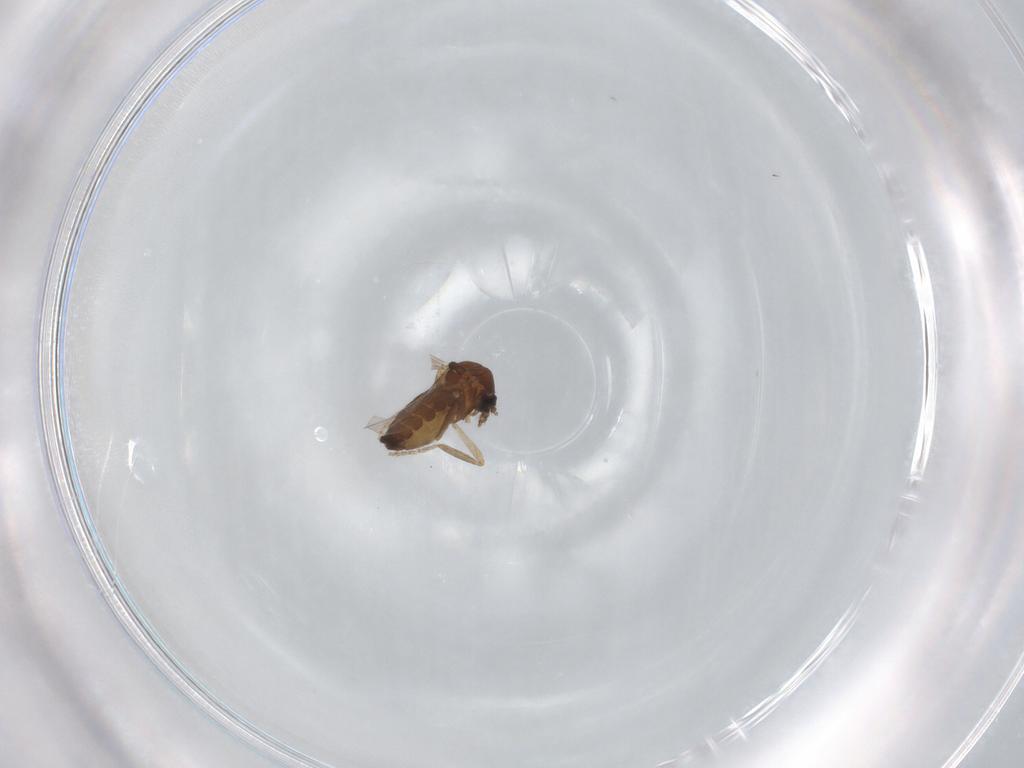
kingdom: Animalia
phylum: Arthropoda
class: Insecta
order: Diptera
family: Ceratopogonidae
